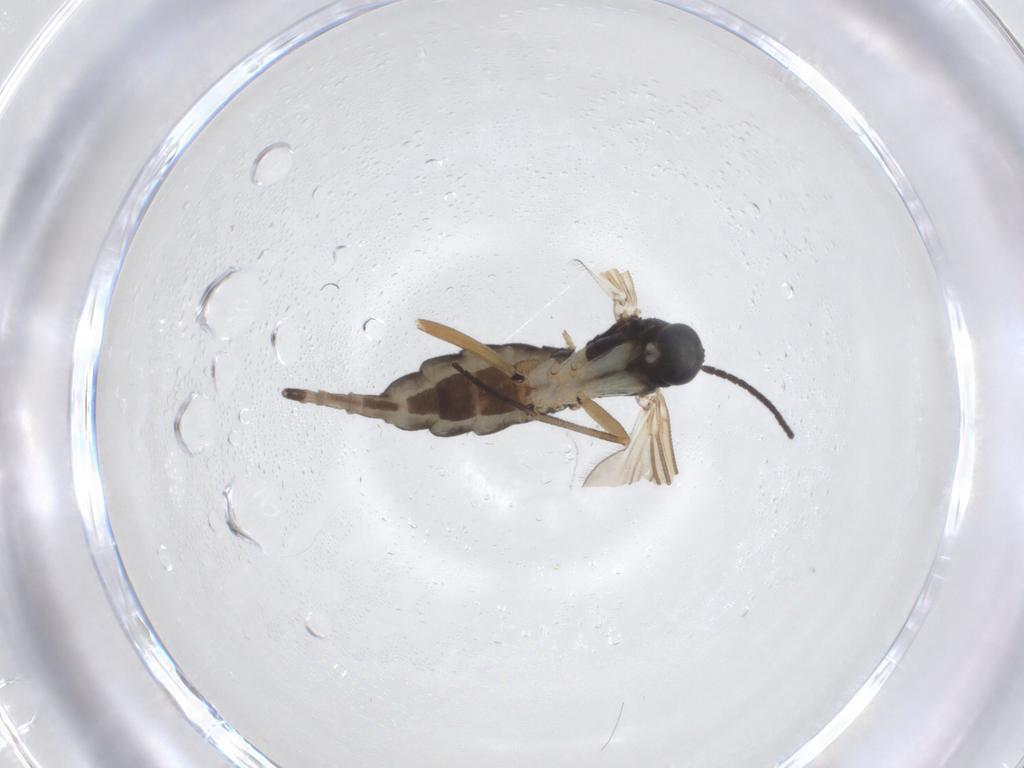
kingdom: Animalia
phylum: Arthropoda
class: Insecta
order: Diptera
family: Sciaridae
